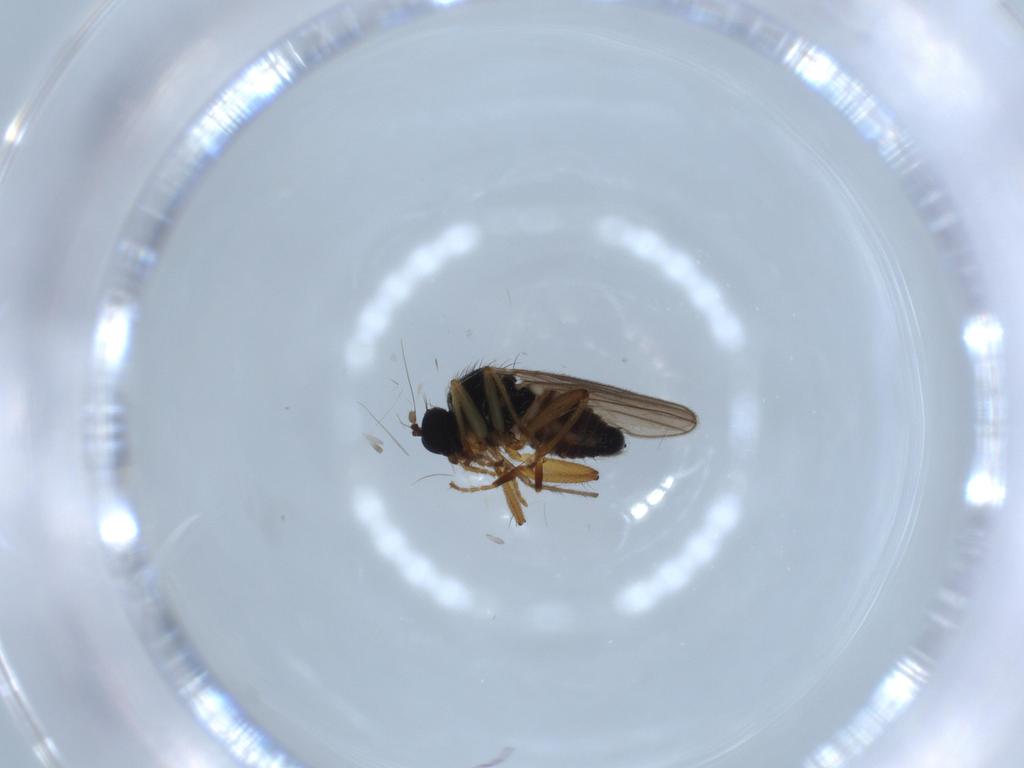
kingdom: Animalia
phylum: Arthropoda
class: Insecta
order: Diptera
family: Hybotidae
